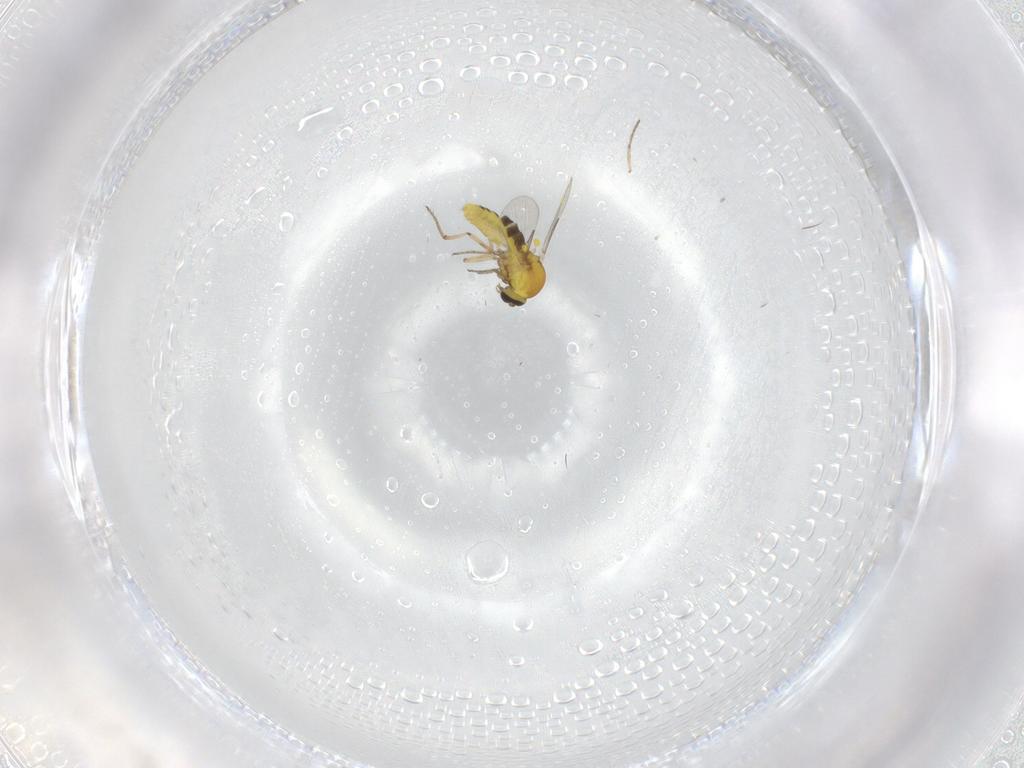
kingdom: Animalia
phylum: Arthropoda
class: Insecta
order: Diptera
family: Ceratopogonidae
